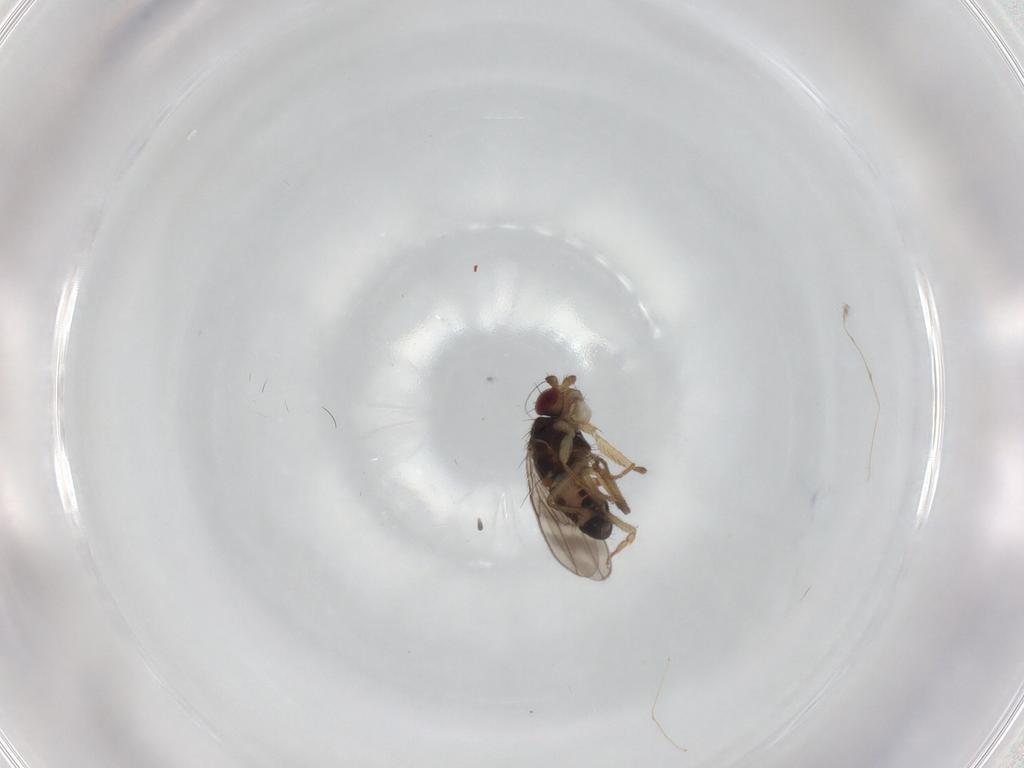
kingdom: Animalia
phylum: Arthropoda
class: Insecta
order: Diptera
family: Sphaeroceridae
